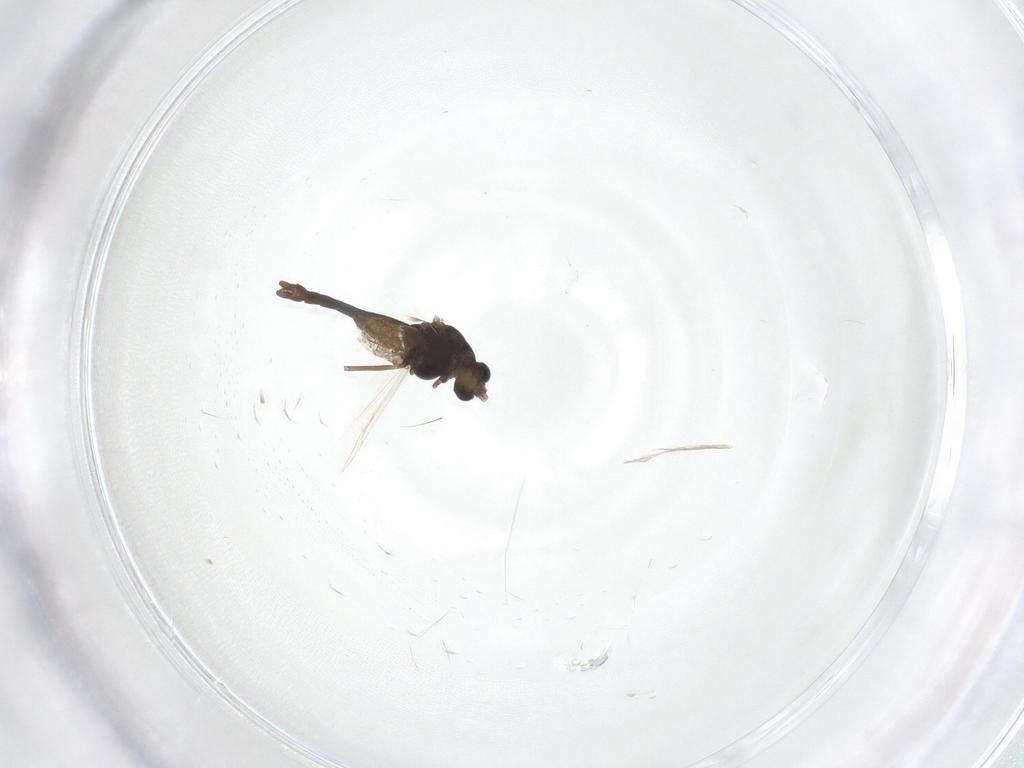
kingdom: Animalia
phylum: Arthropoda
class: Insecta
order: Diptera
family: Chironomidae
